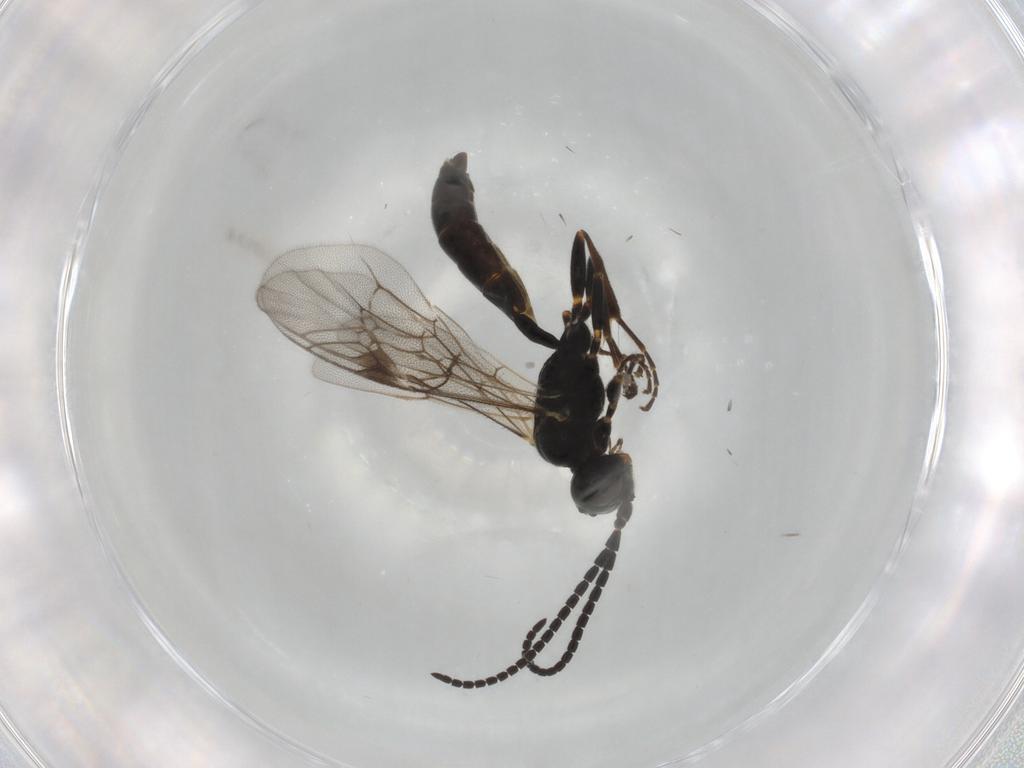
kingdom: Animalia
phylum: Arthropoda
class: Insecta
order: Hymenoptera
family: Ichneumonidae
